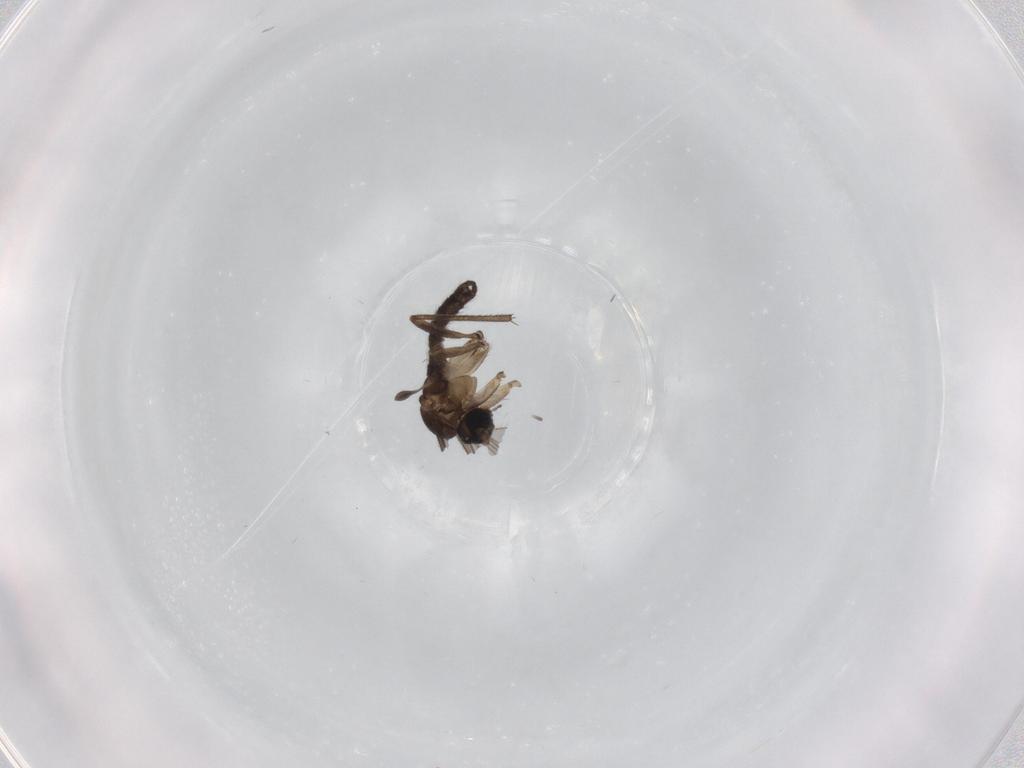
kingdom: Animalia
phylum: Arthropoda
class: Insecta
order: Diptera
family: Sciaridae
